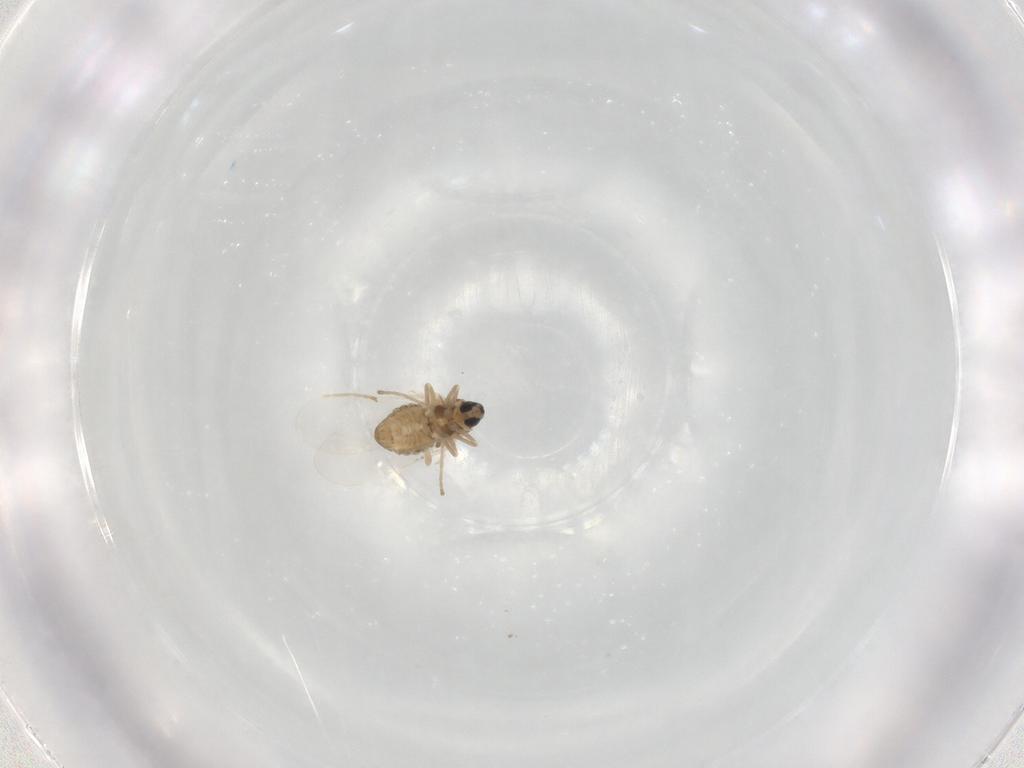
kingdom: Animalia
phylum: Arthropoda
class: Insecta
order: Diptera
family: Cecidomyiidae
